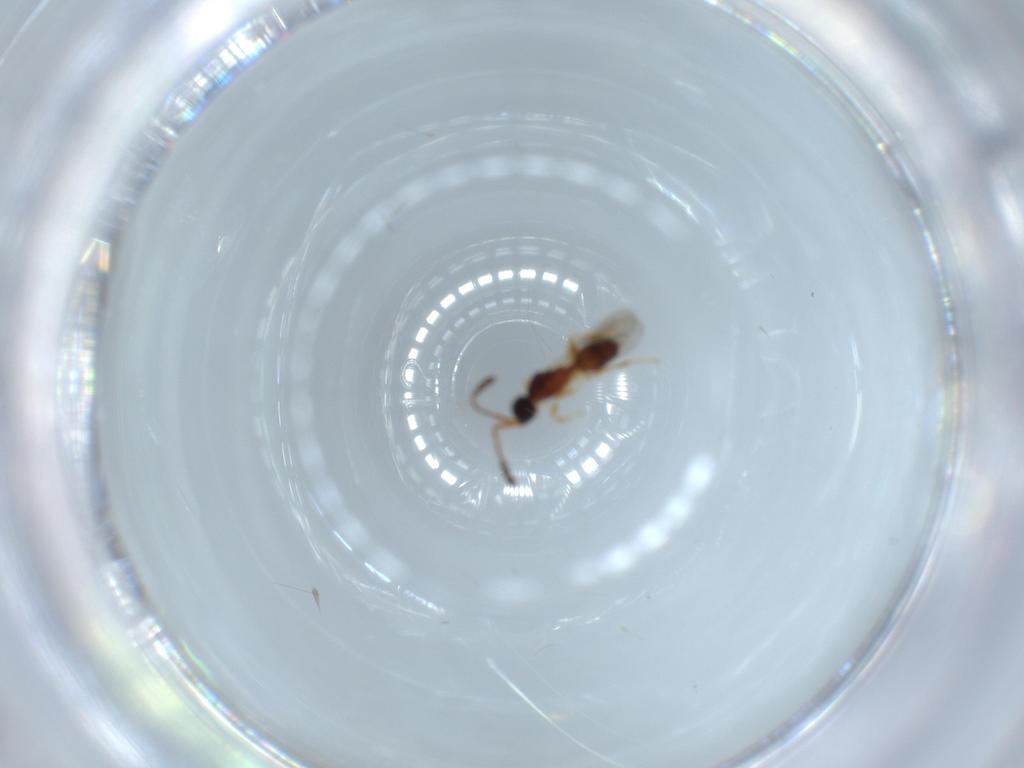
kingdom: Animalia
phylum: Arthropoda
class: Insecta
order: Hymenoptera
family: Diapriidae
